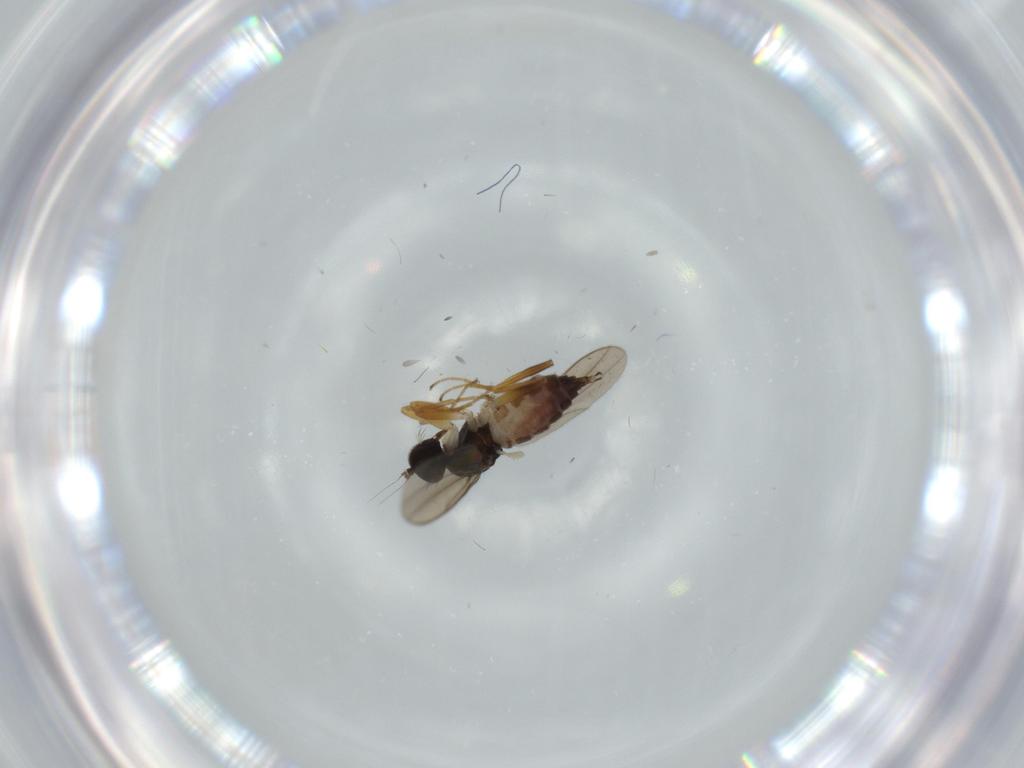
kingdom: Animalia
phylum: Arthropoda
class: Insecta
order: Diptera
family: Hybotidae
